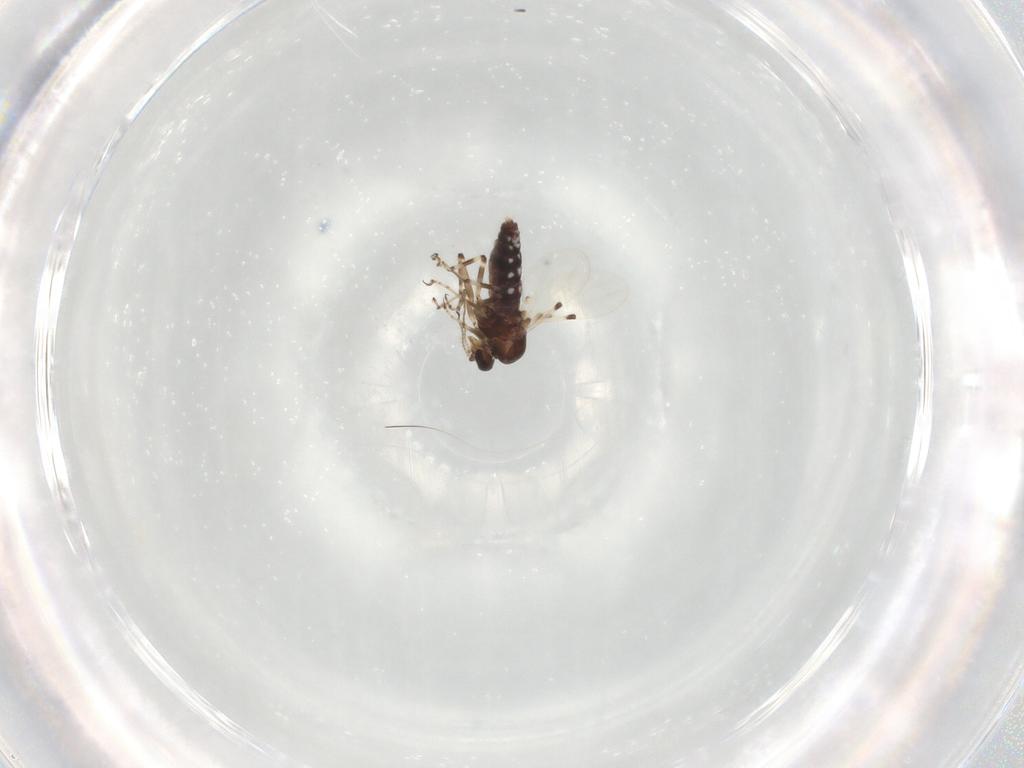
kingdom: Animalia
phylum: Arthropoda
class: Insecta
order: Diptera
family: Ceratopogonidae
